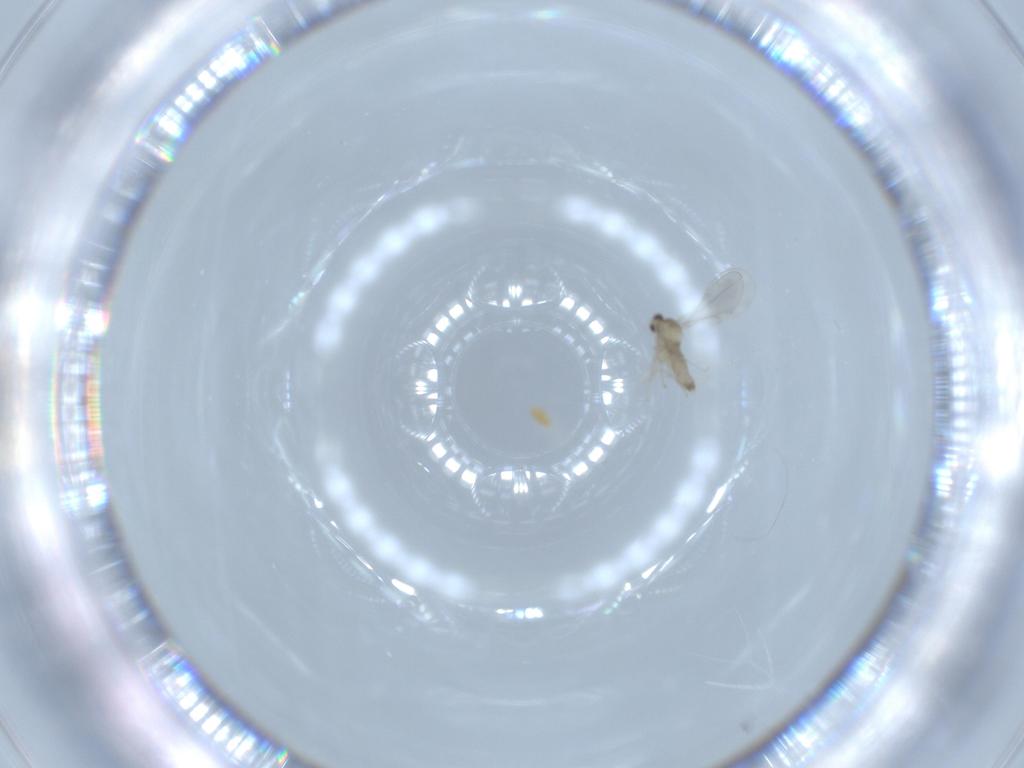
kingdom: Animalia
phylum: Arthropoda
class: Insecta
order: Diptera
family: Cecidomyiidae
